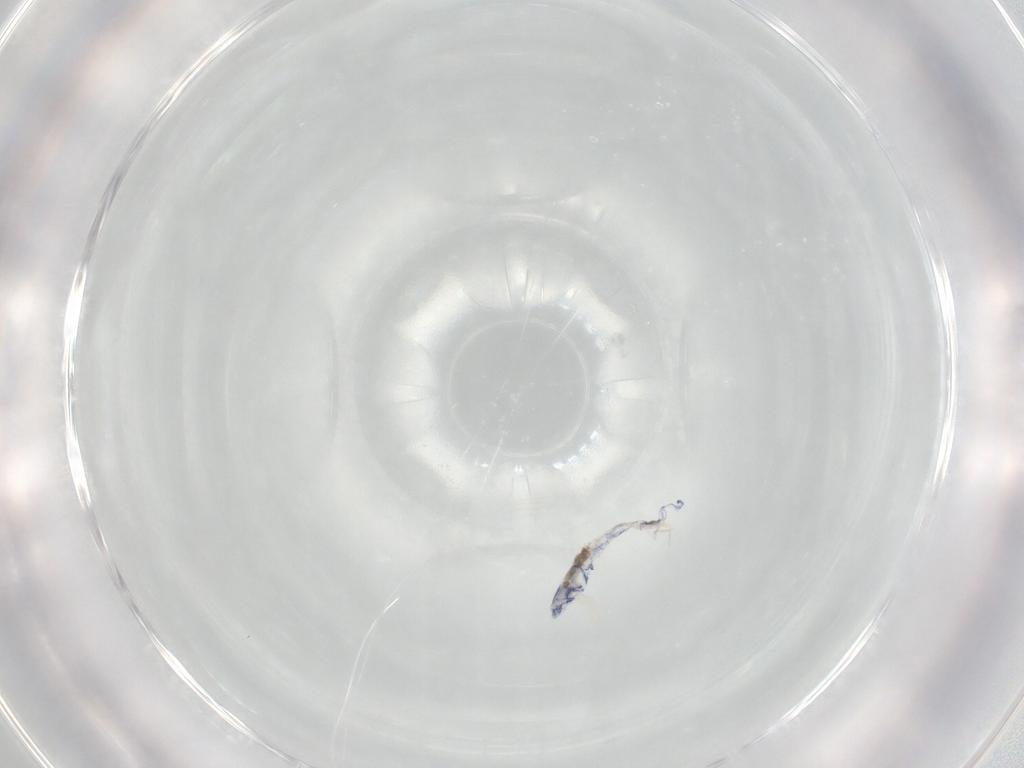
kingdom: Animalia
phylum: Arthropoda
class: Collembola
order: Entomobryomorpha
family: Entomobryidae
